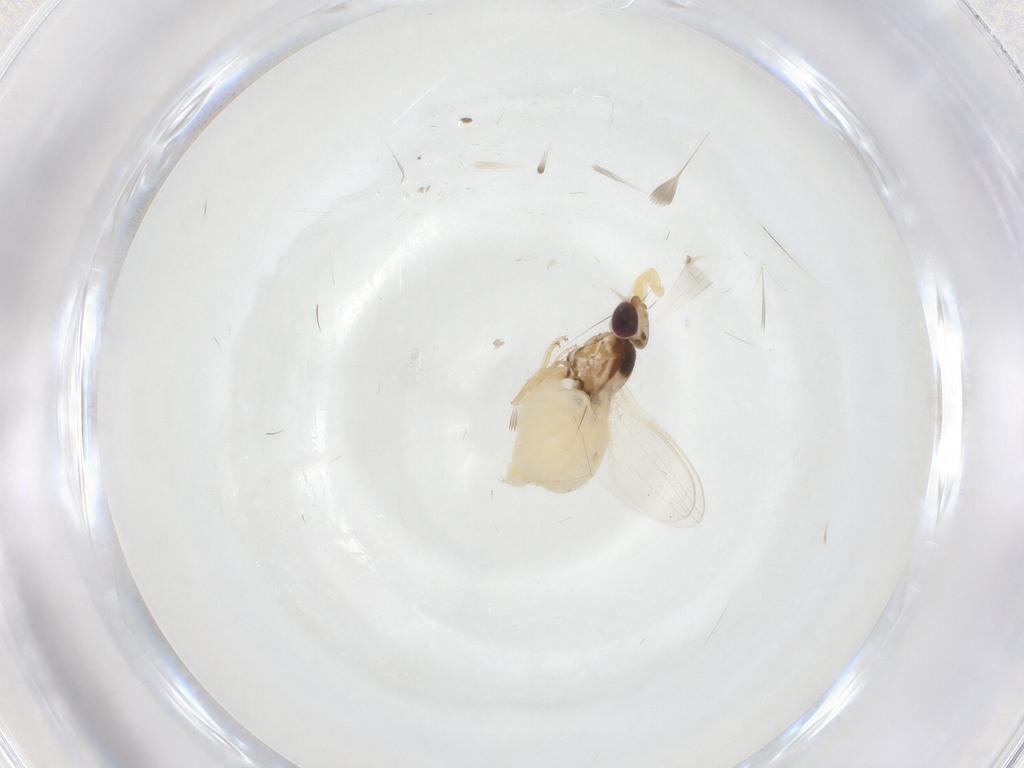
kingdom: Animalia
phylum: Arthropoda
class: Insecta
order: Diptera
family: Chloropidae
